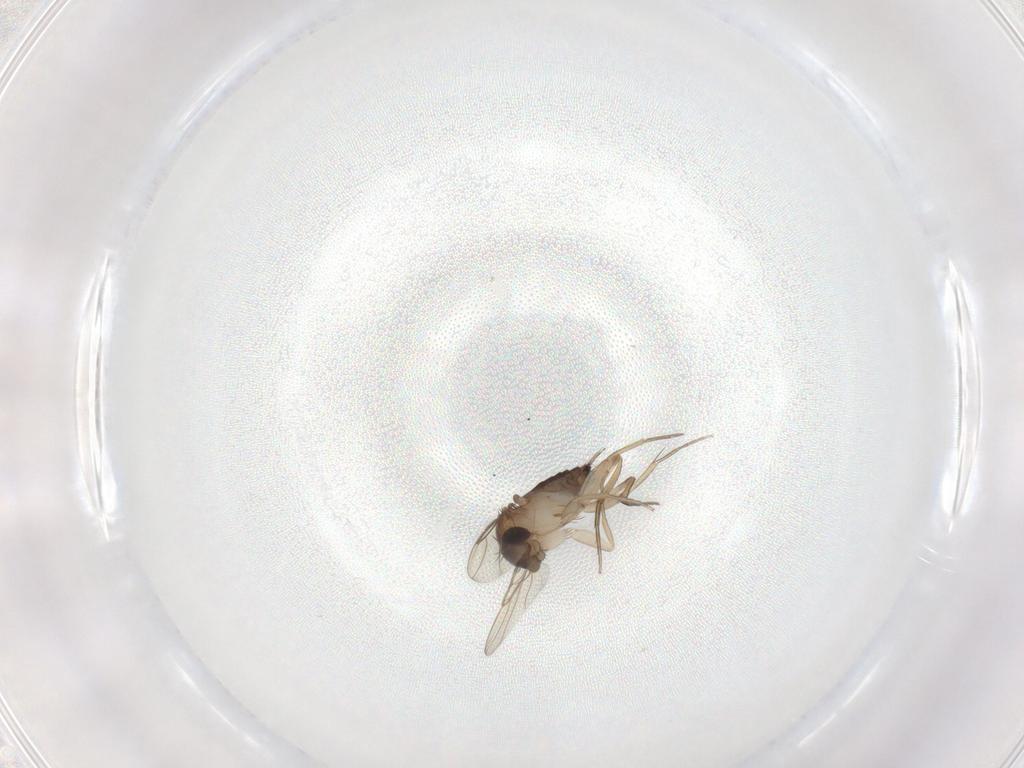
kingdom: Animalia
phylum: Arthropoda
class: Insecta
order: Diptera
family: Phoridae
